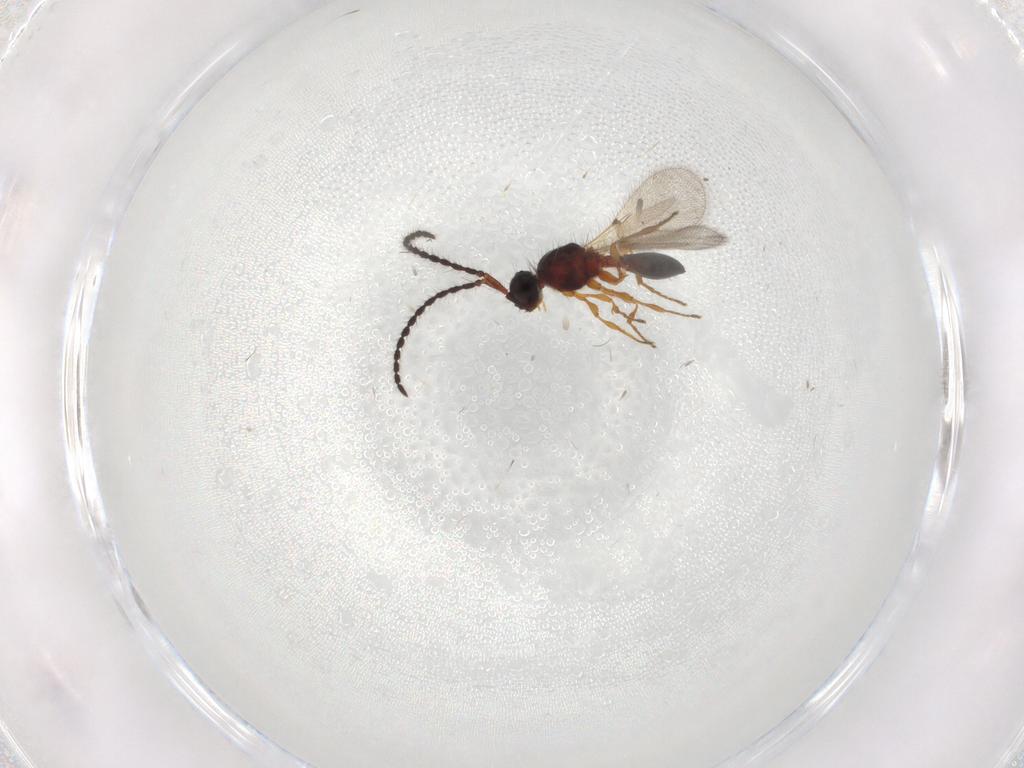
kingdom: Animalia
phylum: Arthropoda
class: Insecta
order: Hymenoptera
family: Diapriidae
